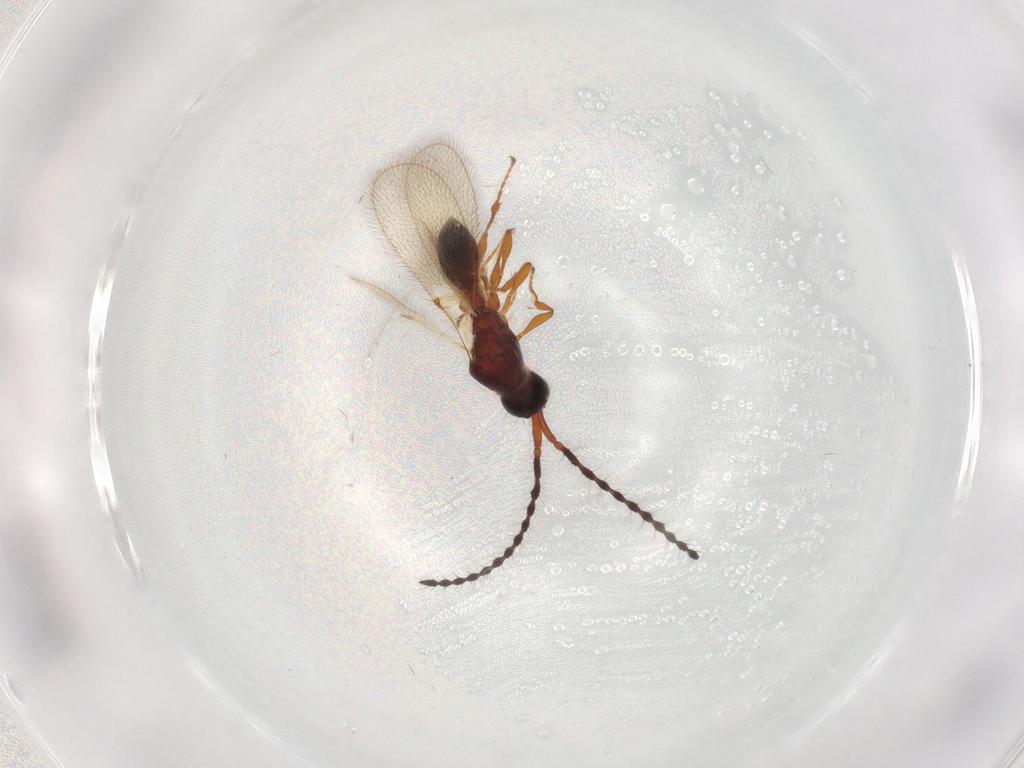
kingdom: Animalia
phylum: Arthropoda
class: Insecta
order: Hymenoptera
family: Diapriidae
